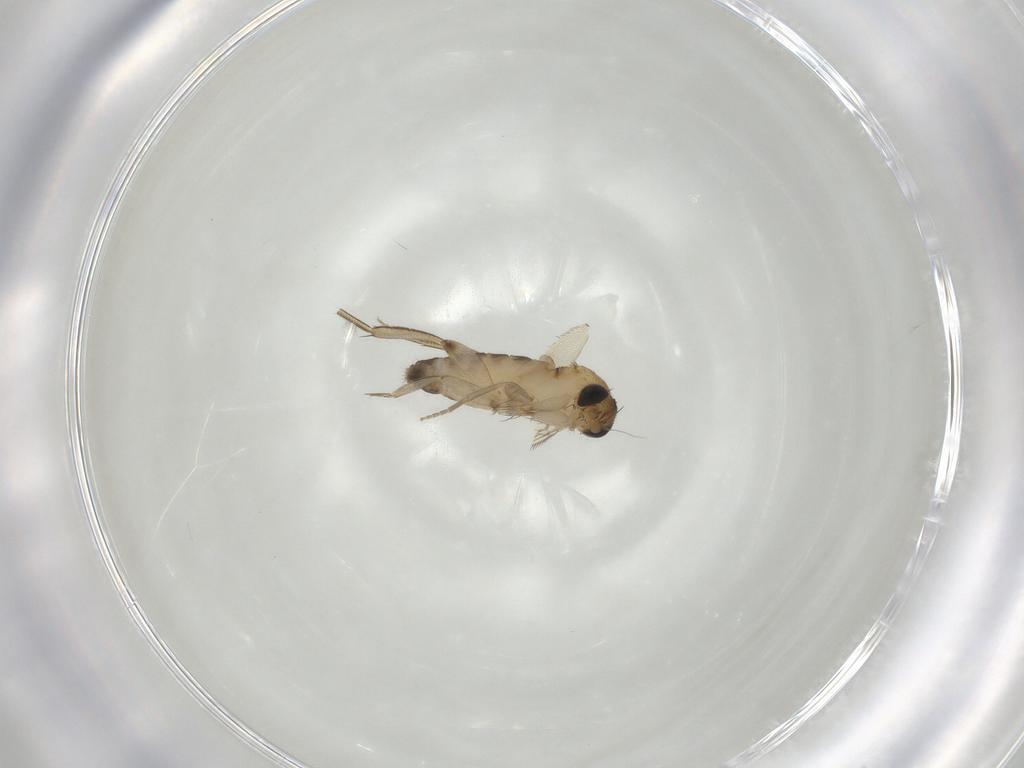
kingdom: Animalia
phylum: Arthropoda
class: Insecta
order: Diptera
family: Phoridae
